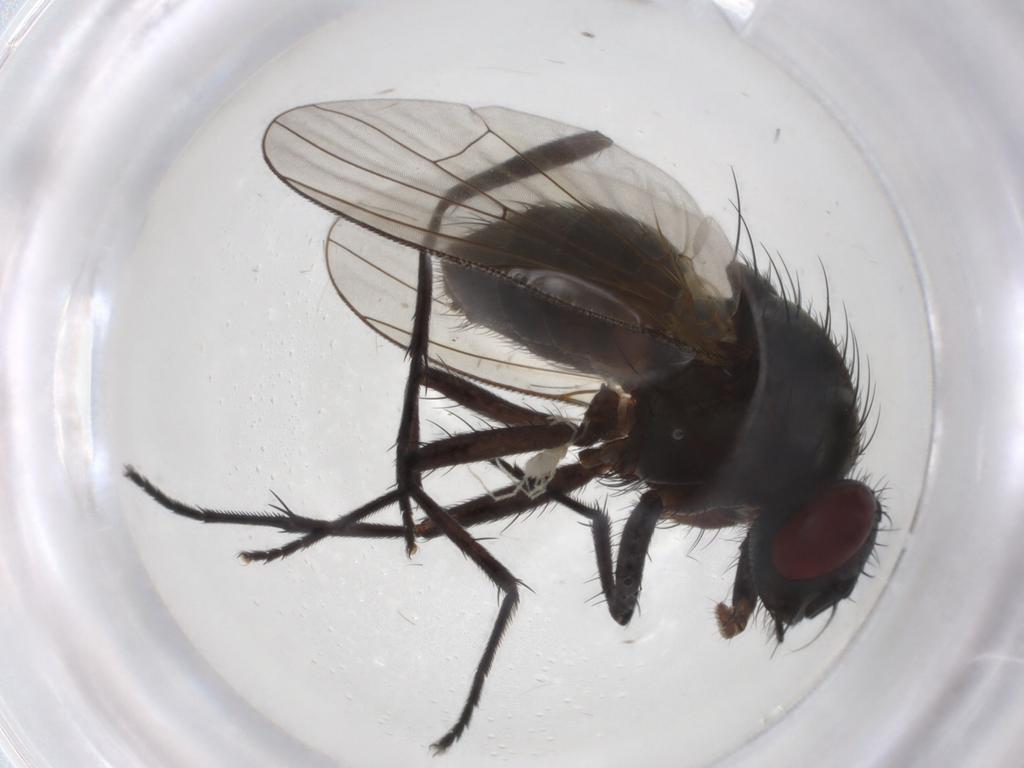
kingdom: Animalia
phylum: Arthropoda
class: Insecta
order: Diptera
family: Muscidae
